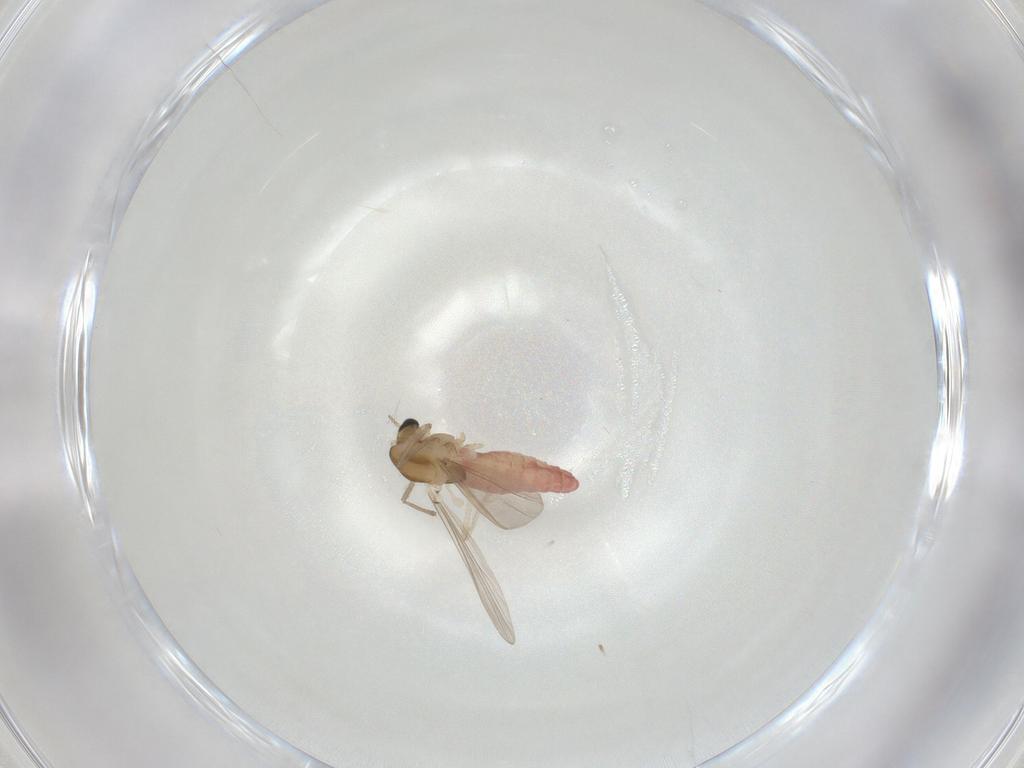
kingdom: Animalia
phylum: Arthropoda
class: Insecta
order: Diptera
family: Chironomidae
